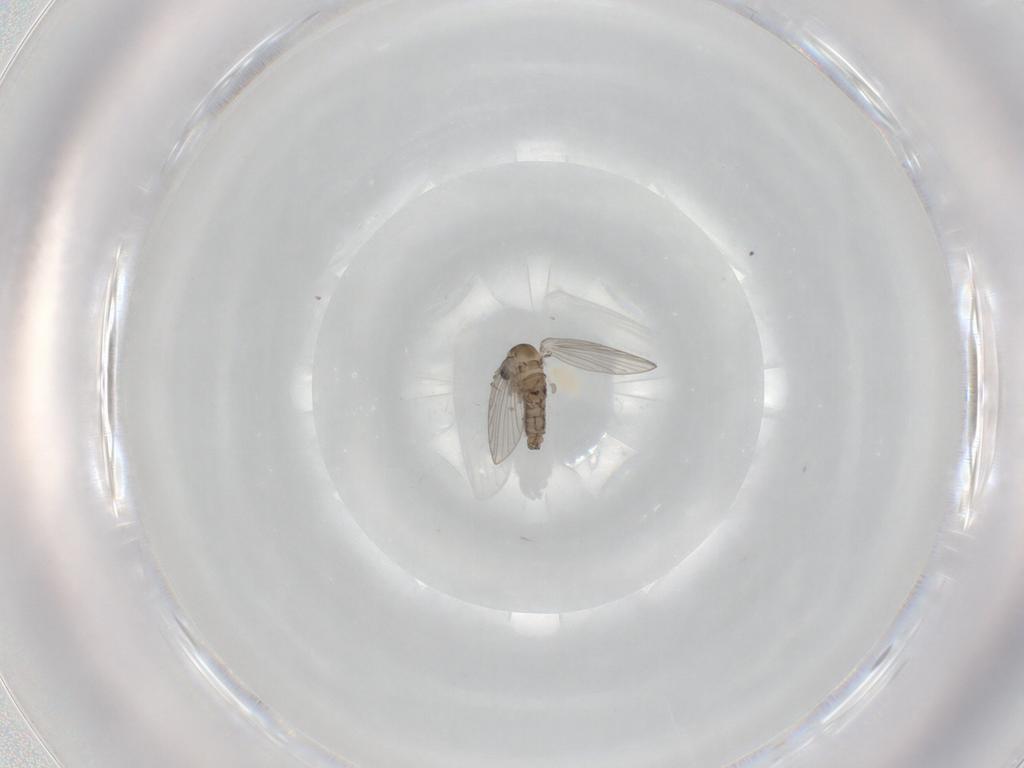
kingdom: Animalia
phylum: Arthropoda
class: Insecta
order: Diptera
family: Psychodidae
